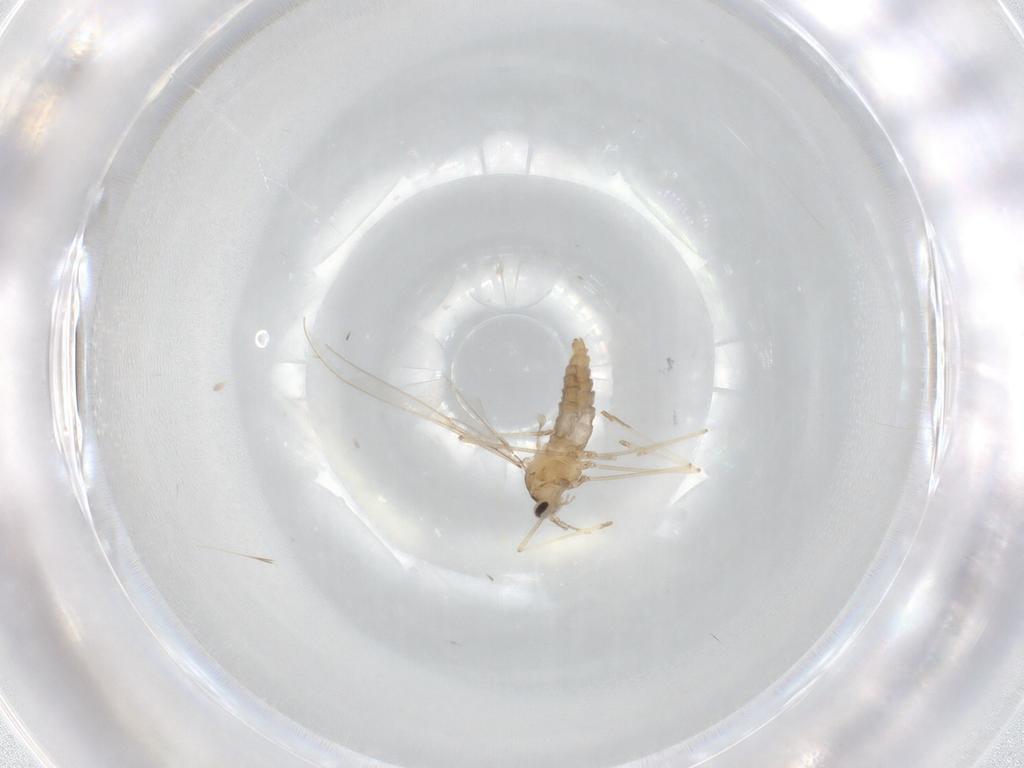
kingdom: Animalia
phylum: Arthropoda
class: Insecta
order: Diptera
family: Cecidomyiidae
